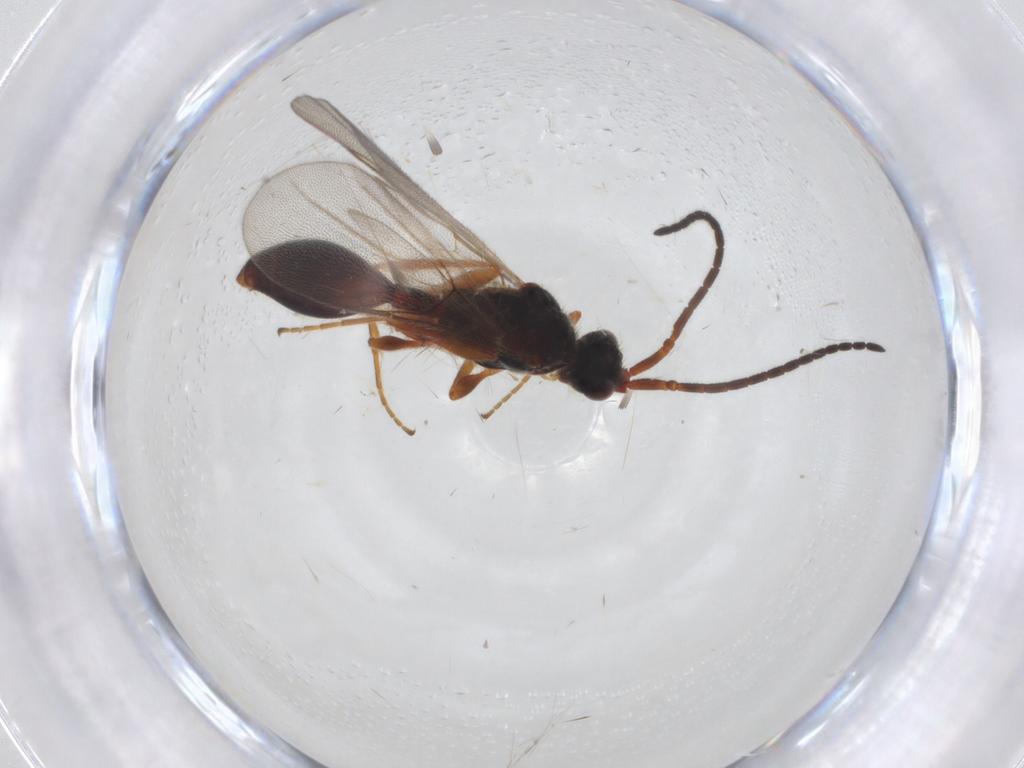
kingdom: Animalia
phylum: Arthropoda
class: Insecta
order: Hymenoptera
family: Diapriidae
